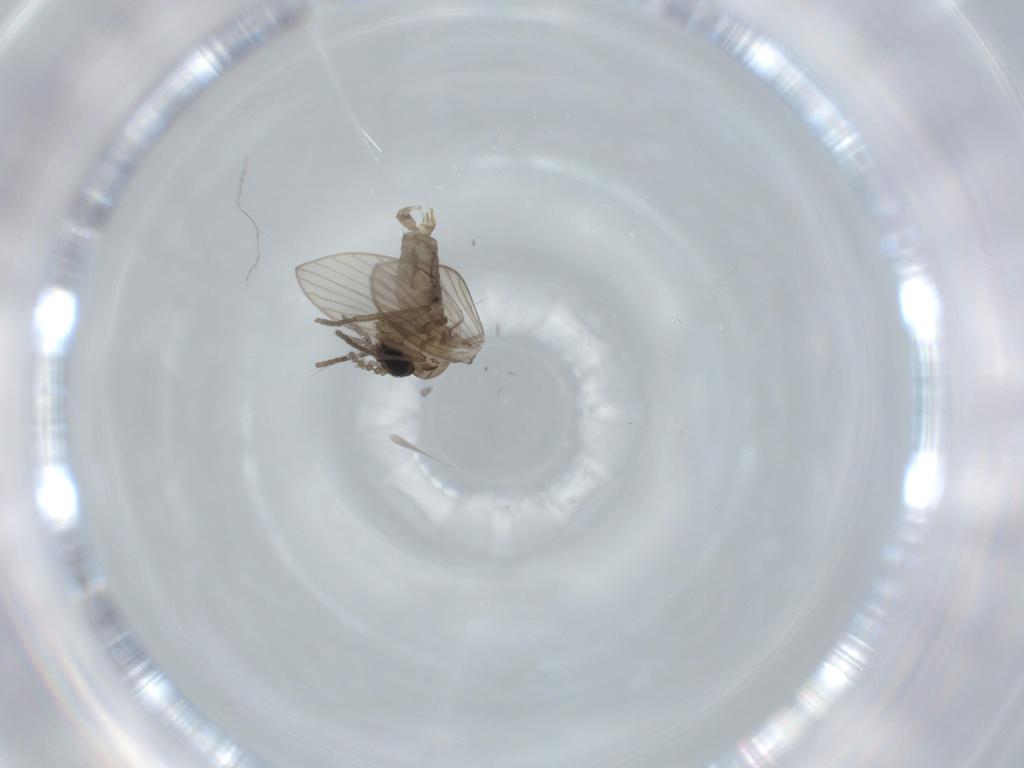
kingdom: Animalia
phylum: Arthropoda
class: Insecta
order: Diptera
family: Psychodidae
